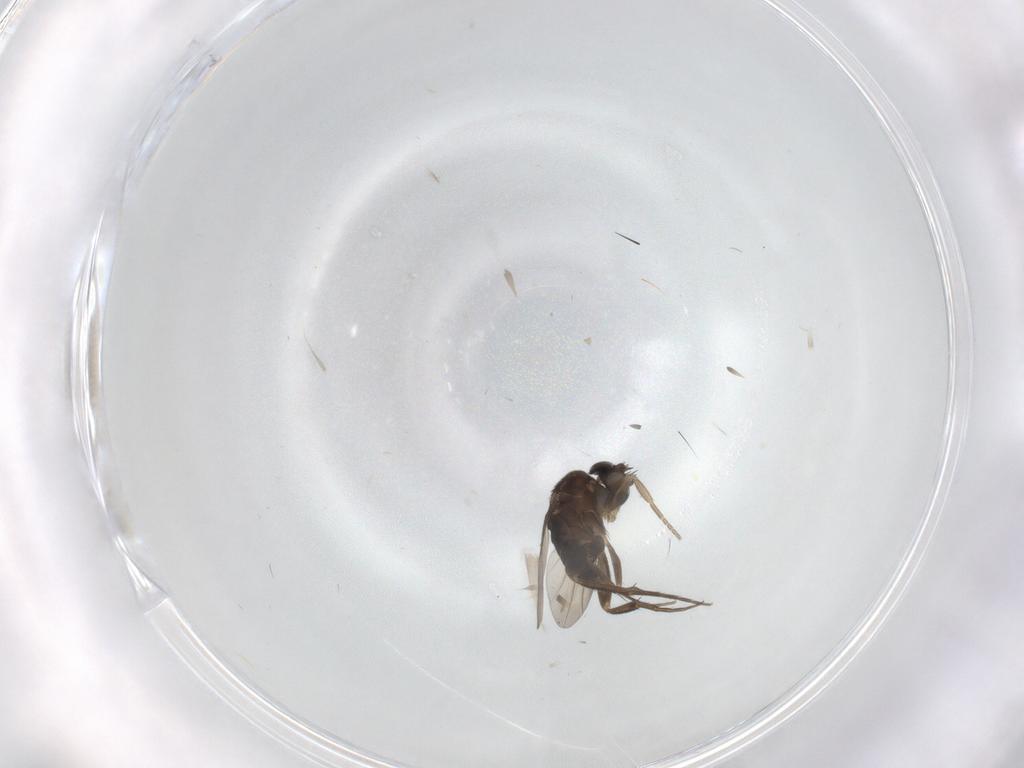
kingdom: Animalia
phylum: Arthropoda
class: Insecta
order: Diptera
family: Phoridae
